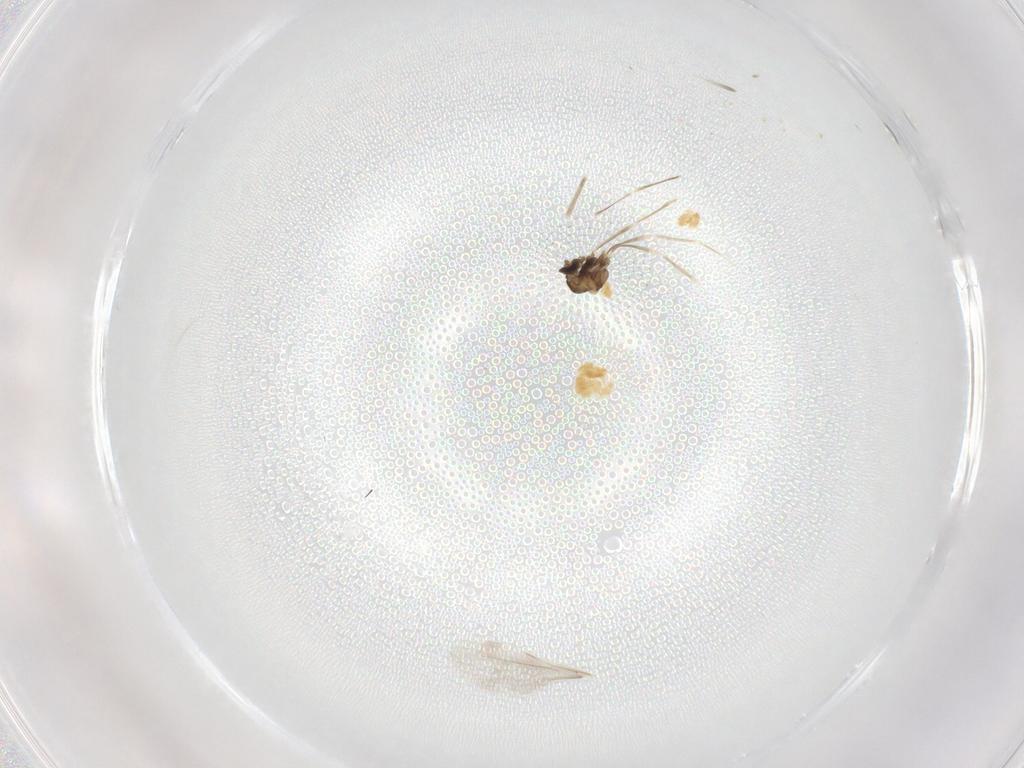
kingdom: Animalia
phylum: Arthropoda
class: Insecta
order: Diptera
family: Cecidomyiidae
